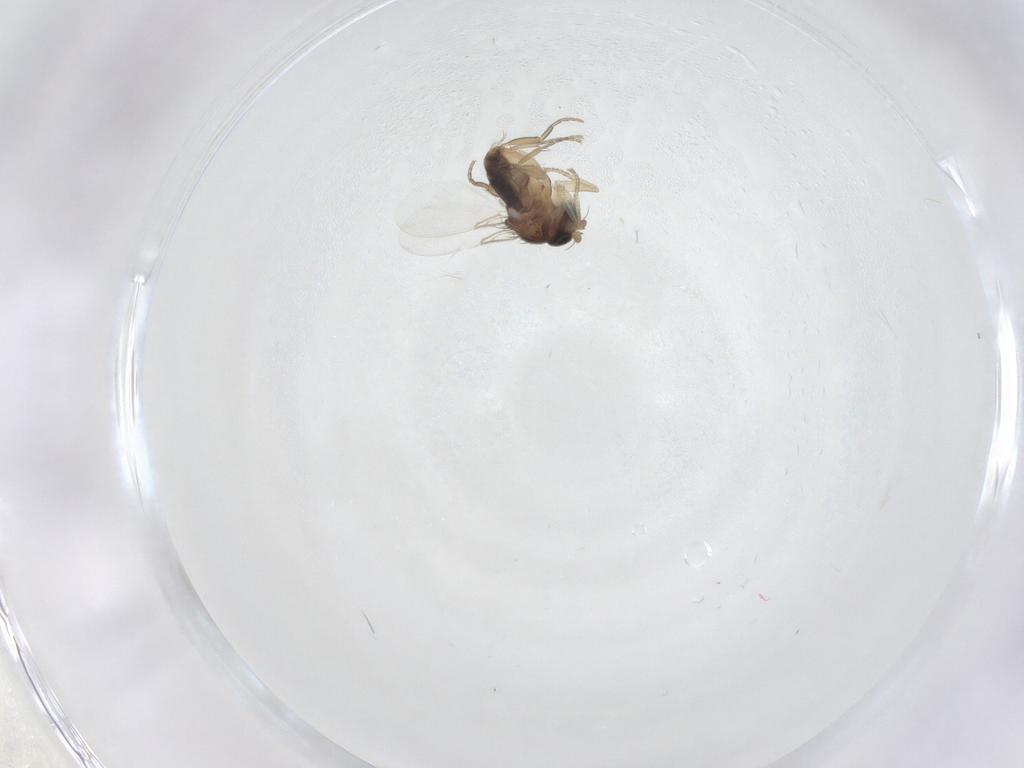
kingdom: Animalia
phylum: Arthropoda
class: Insecta
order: Diptera
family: Phoridae
